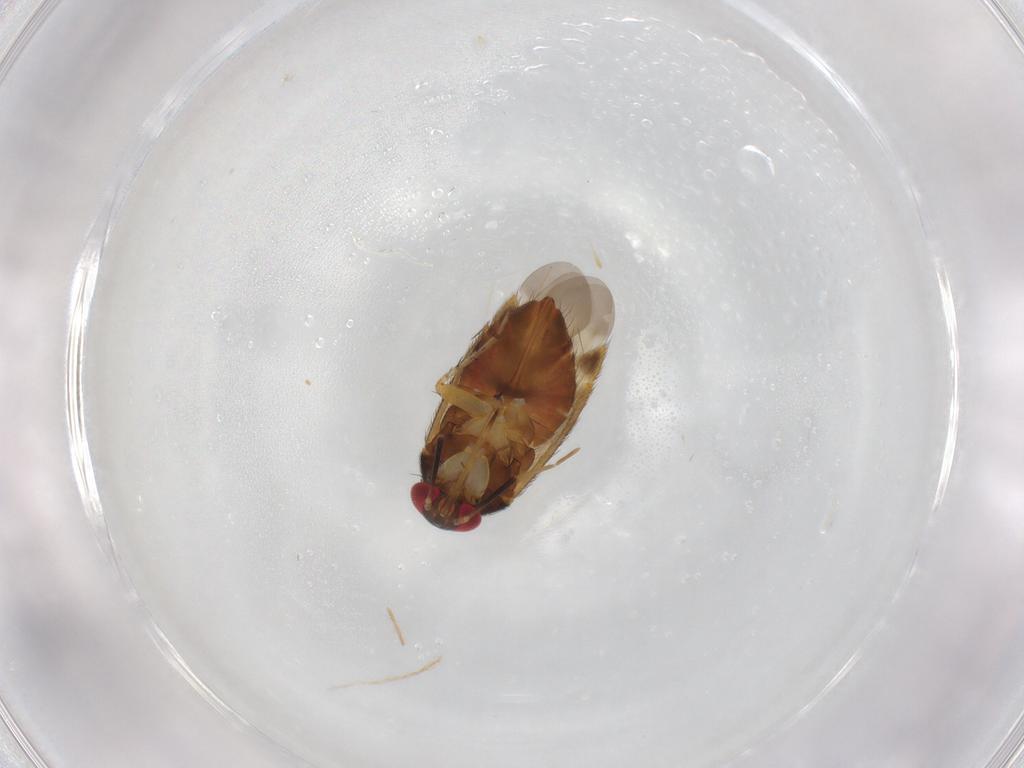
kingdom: Animalia
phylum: Arthropoda
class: Insecta
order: Hemiptera
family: Miridae
